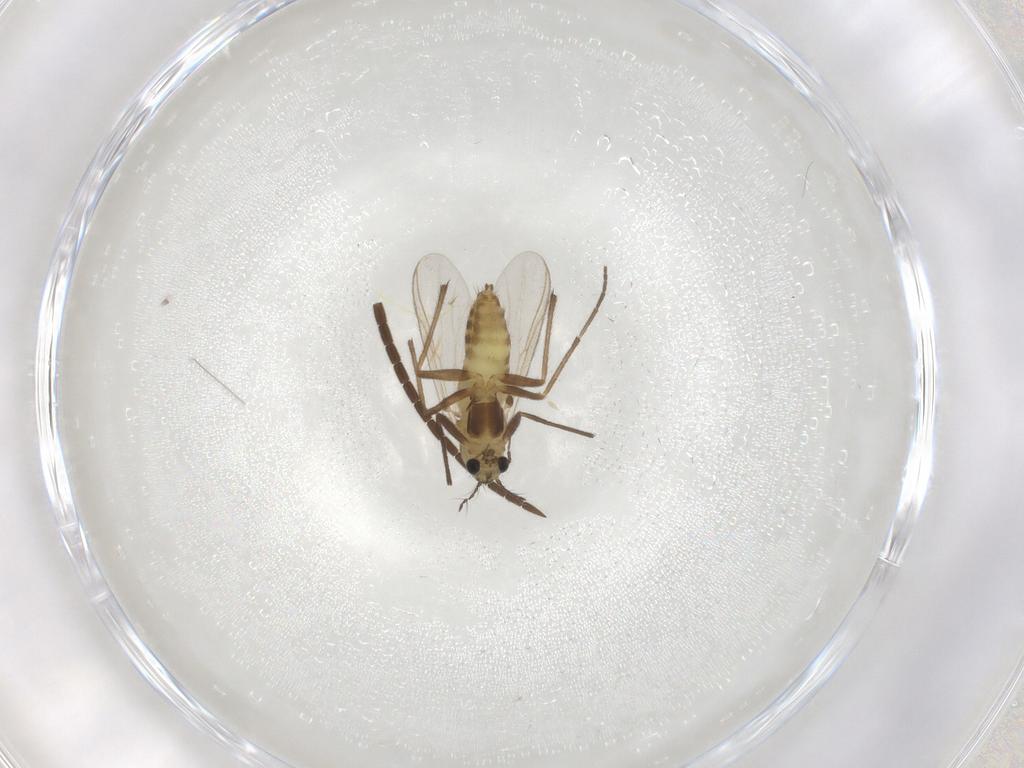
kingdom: Animalia
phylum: Arthropoda
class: Insecta
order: Diptera
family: Chironomidae
